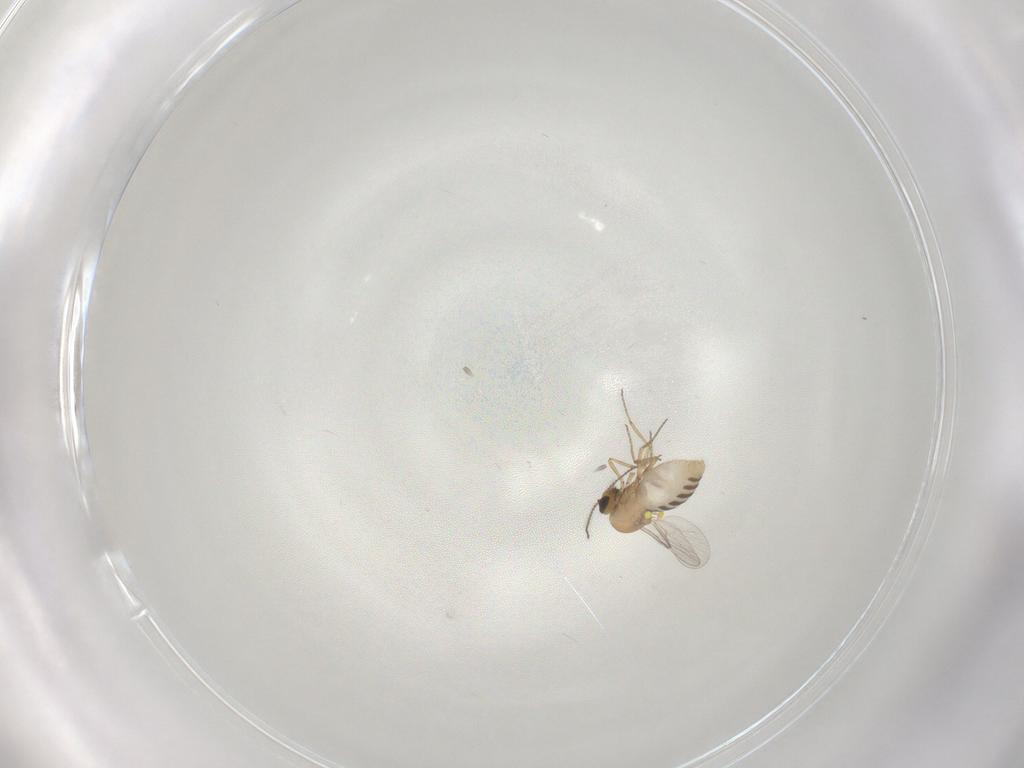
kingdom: Animalia
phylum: Arthropoda
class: Insecta
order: Diptera
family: Ceratopogonidae
